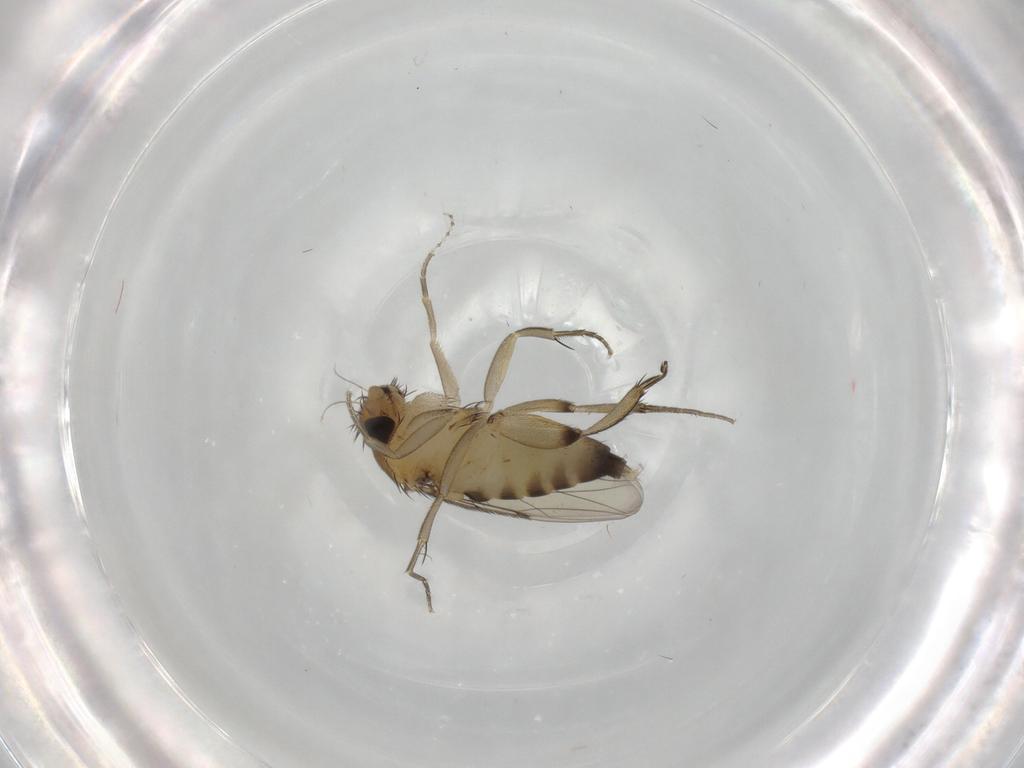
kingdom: Animalia
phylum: Arthropoda
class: Insecta
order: Diptera
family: Phoridae
